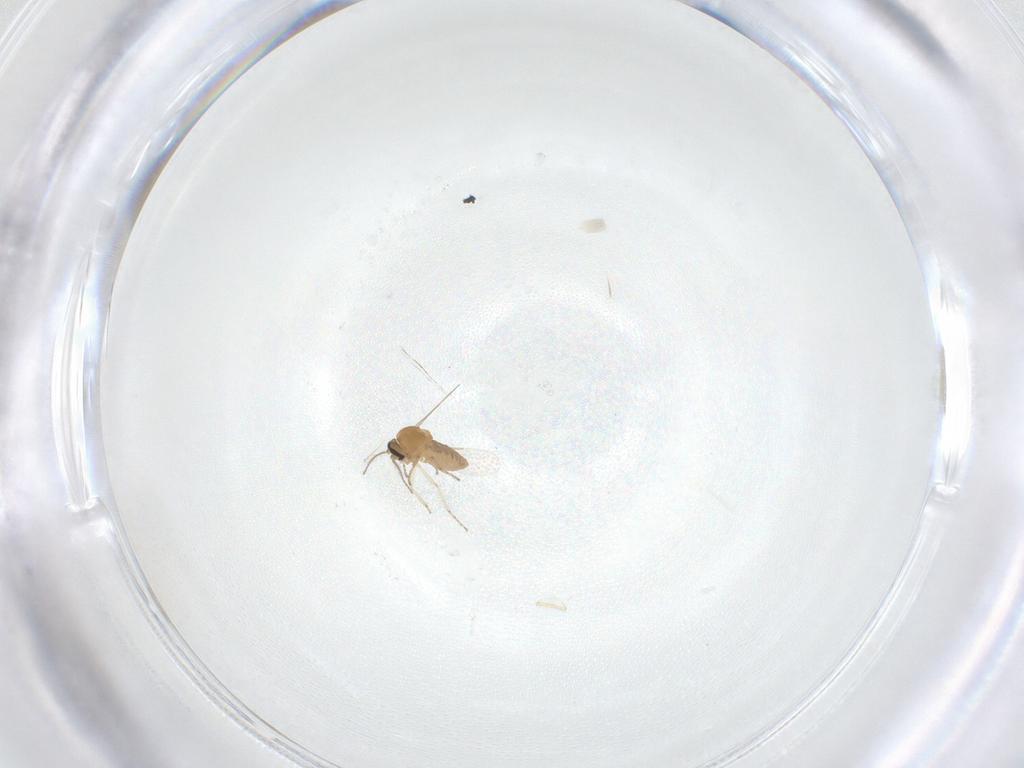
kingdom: Animalia
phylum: Arthropoda
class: Insecta
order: Diptera
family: Ceratopogonidae
